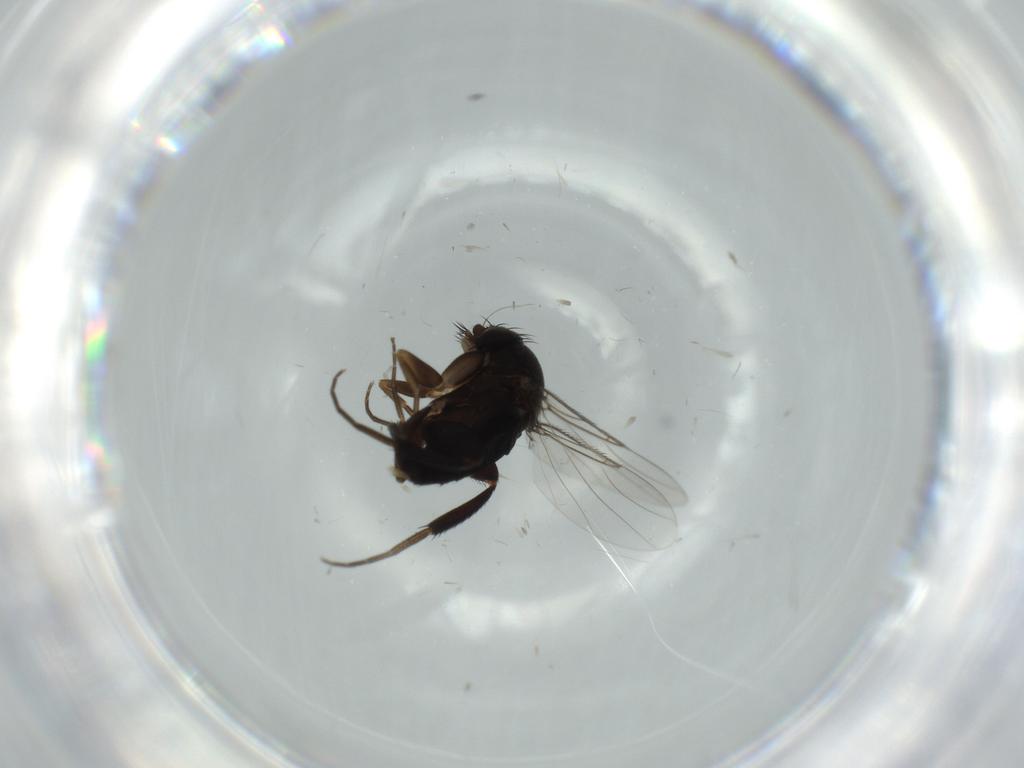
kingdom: Animalia
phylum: Arthropoda
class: Insecta
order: Diptera
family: Phoridae
